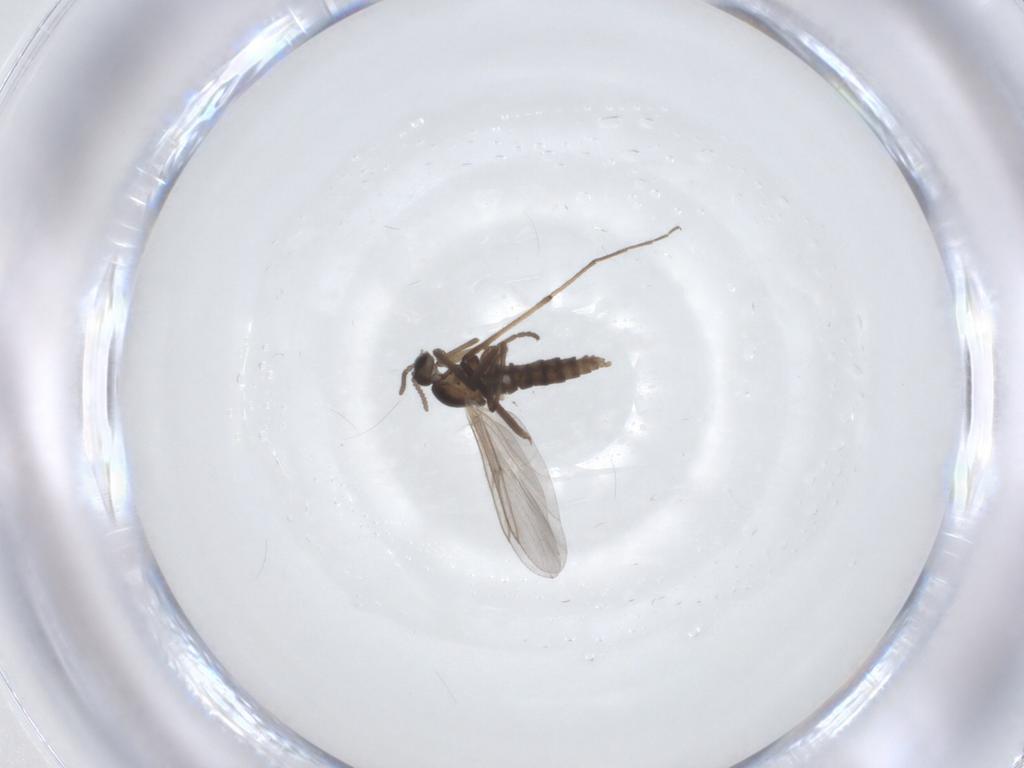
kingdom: Animalia
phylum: Arthropoda
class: Insecta
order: Diptera
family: Cecidomyiidae
